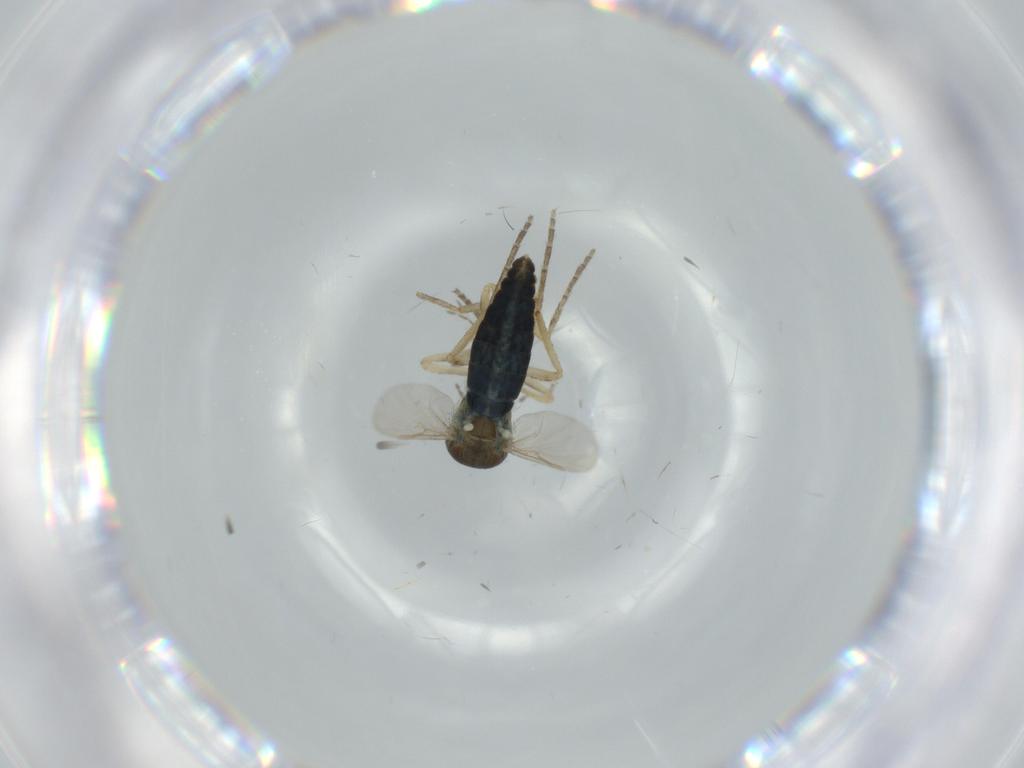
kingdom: Animalia
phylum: Arthropoda
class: Insecta
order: Diptera
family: Ceratopogonidae
